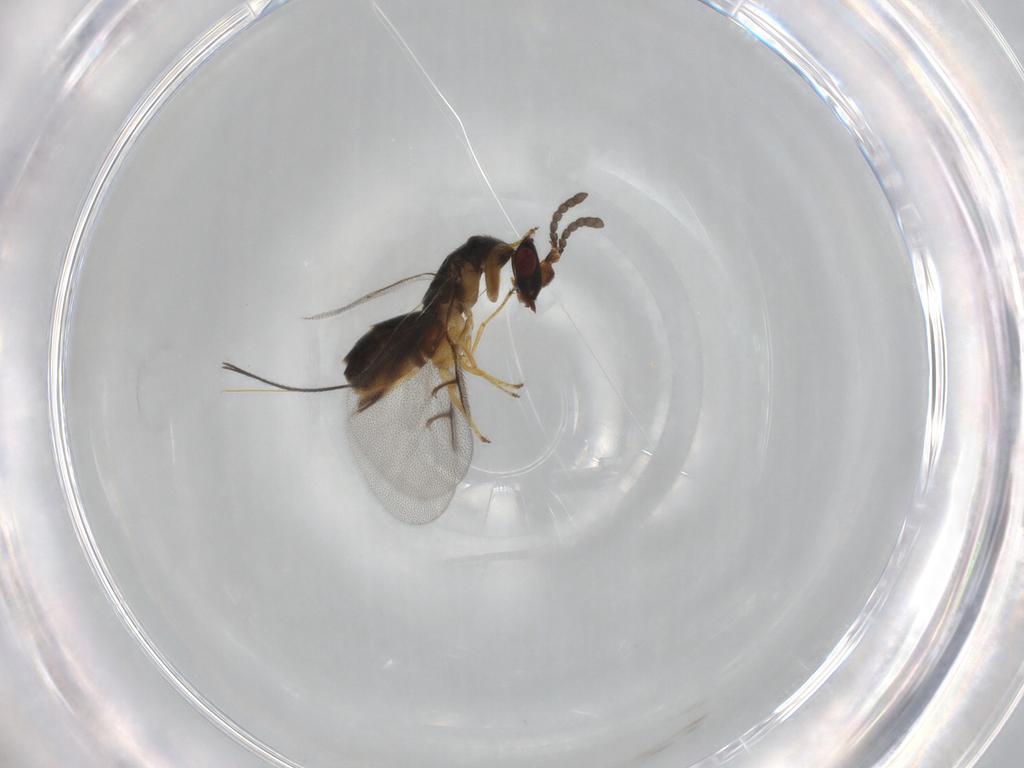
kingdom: Animalia
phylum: Arthropoda
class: Insecta
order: Hymenoptera
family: Agaonidae
